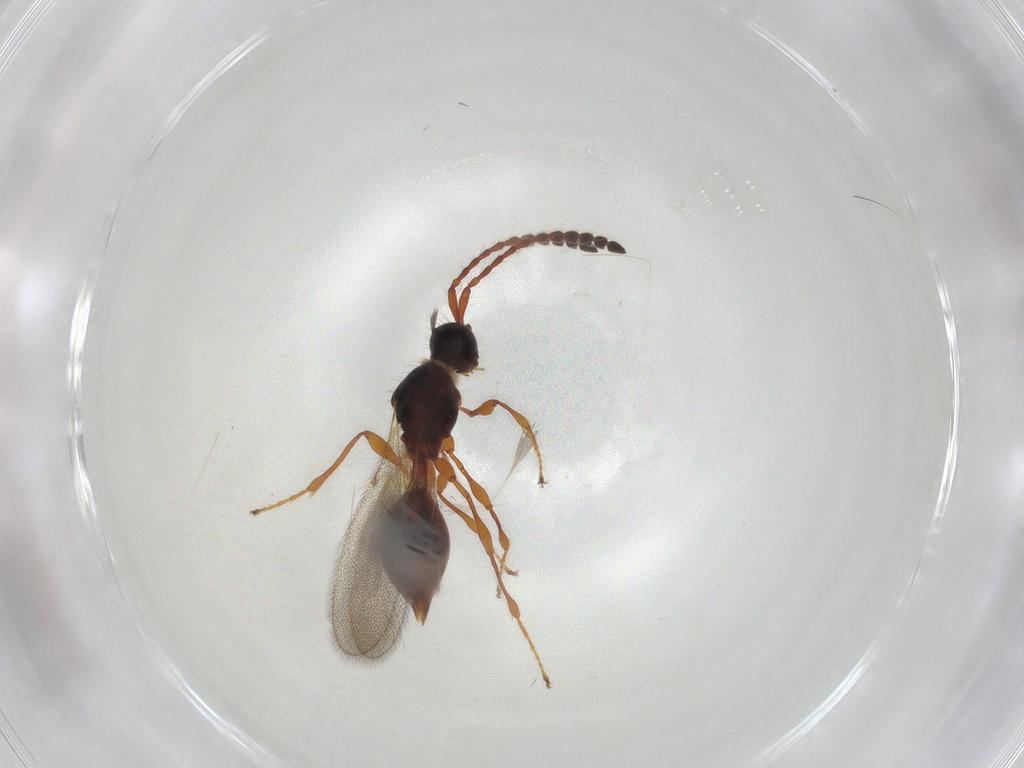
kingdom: Animalia
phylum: Arthropoda
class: Insecta
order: Hymenoptera
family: Diapriidae
